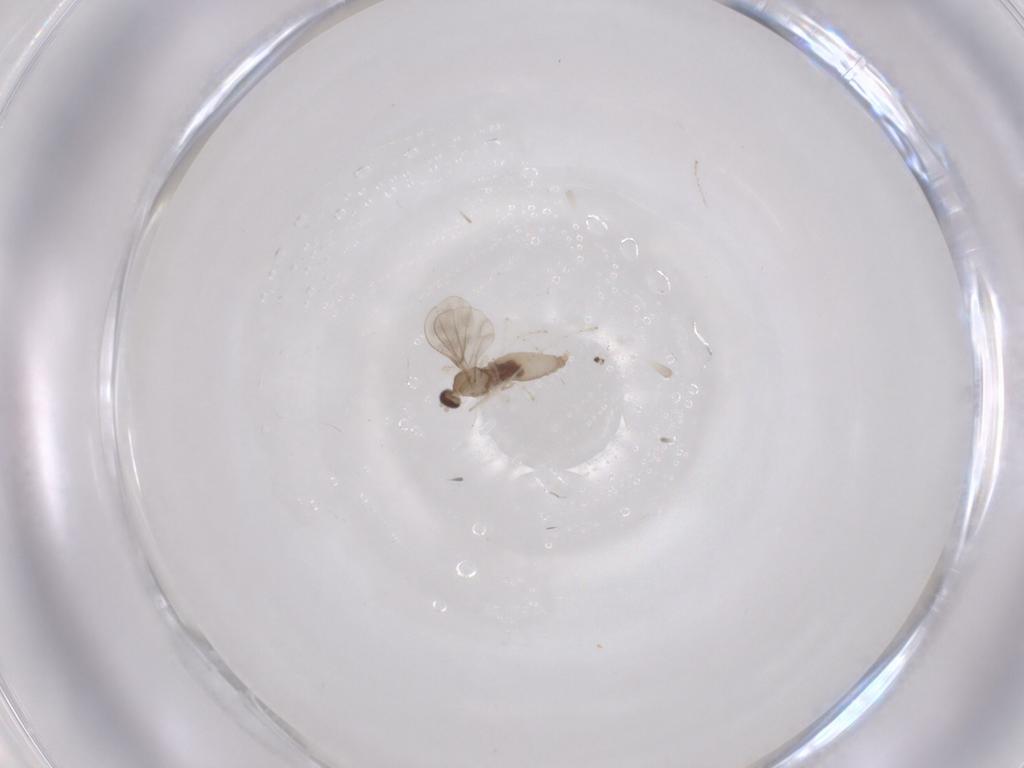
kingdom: Animalia
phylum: Arthropoda
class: Insecta
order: Diptera
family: Cecidomyiidae
